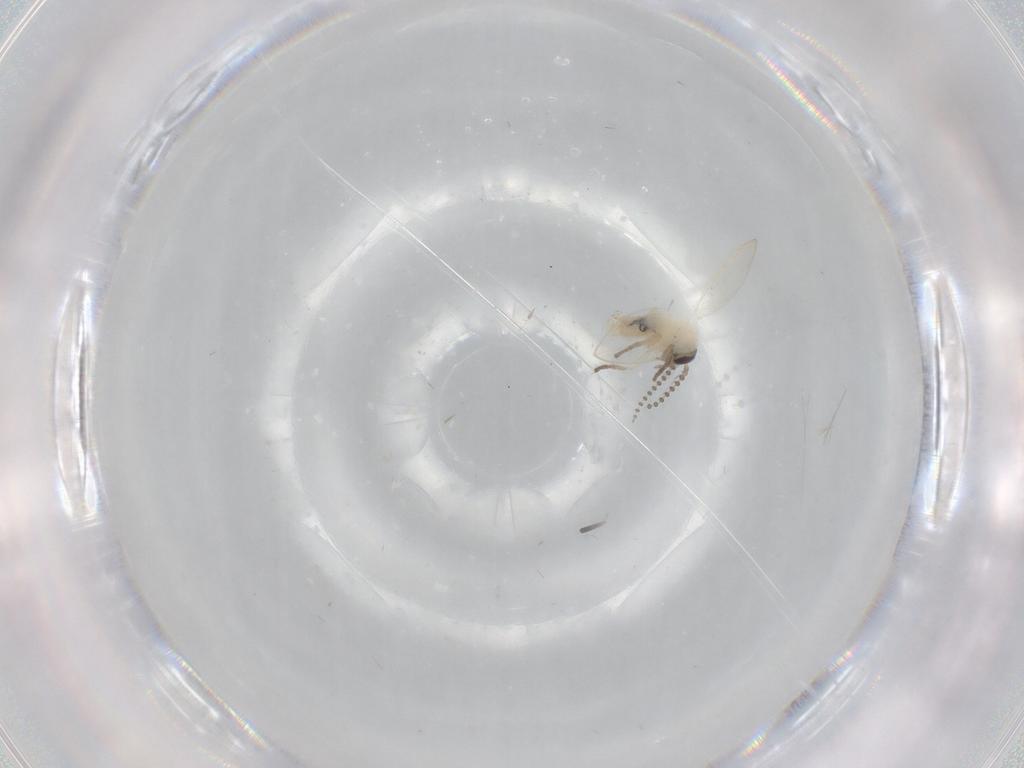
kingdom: Animalia
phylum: Arthropoda
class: Insecta
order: Diptera
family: Psychodidae
